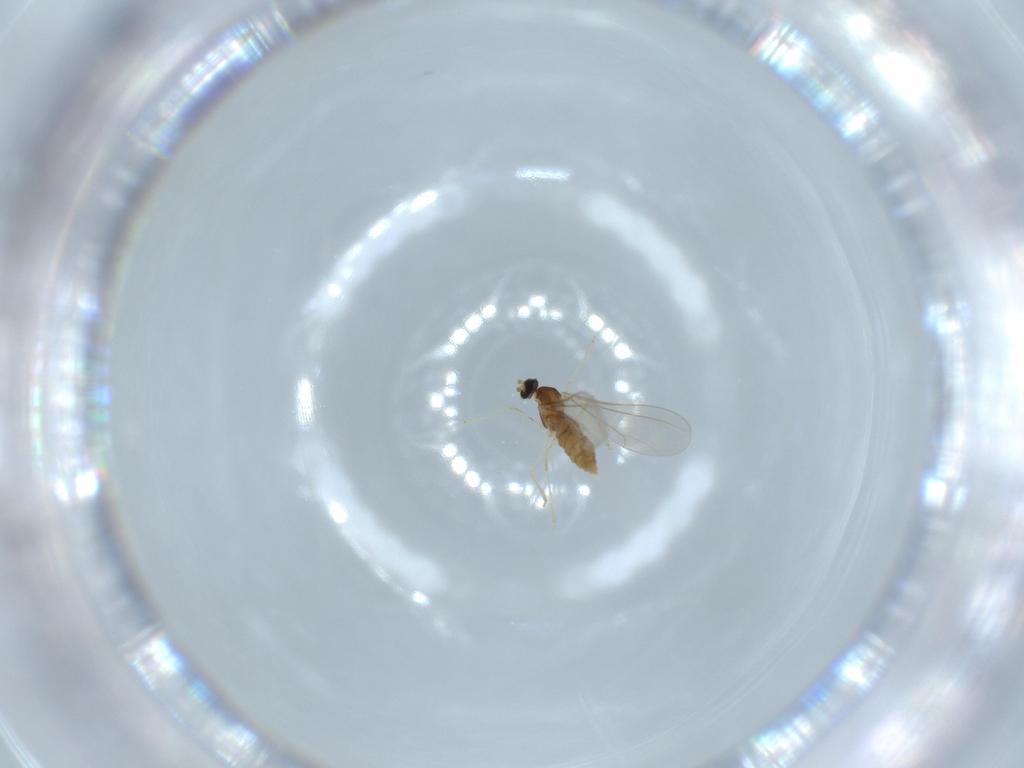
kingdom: Animalia
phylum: Arthropoda
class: Insecta
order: Diptera
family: Cecidomyiidae
